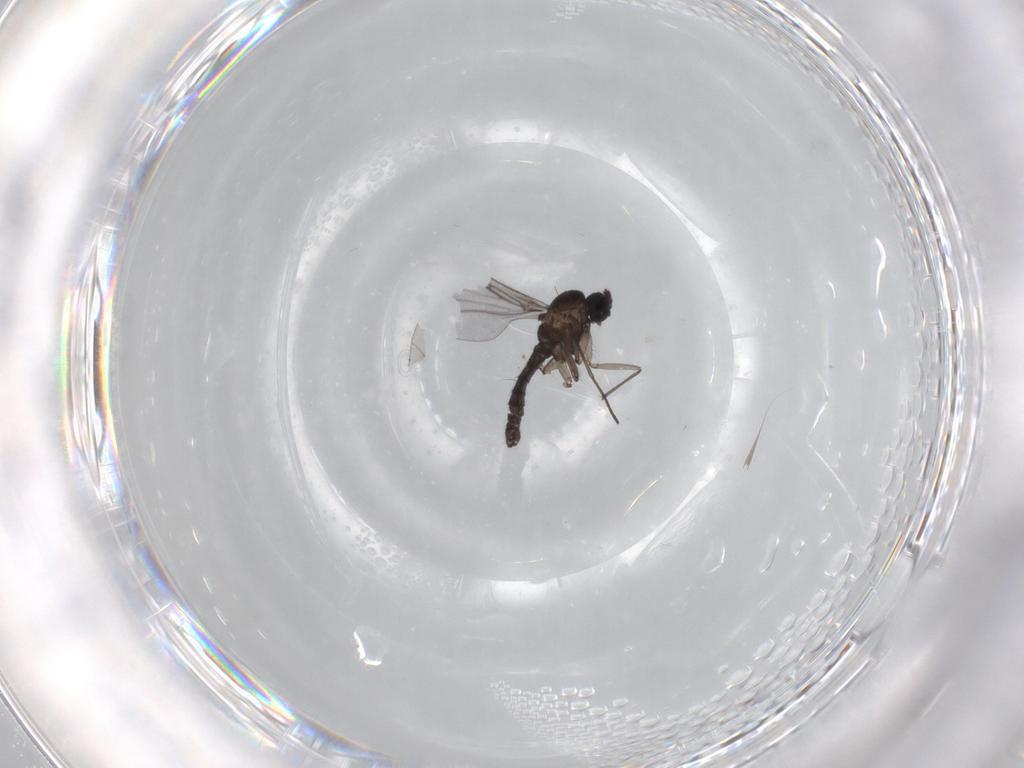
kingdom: Animalia
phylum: Arthropoda
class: Insecta
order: Diptera
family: Sciaridae
